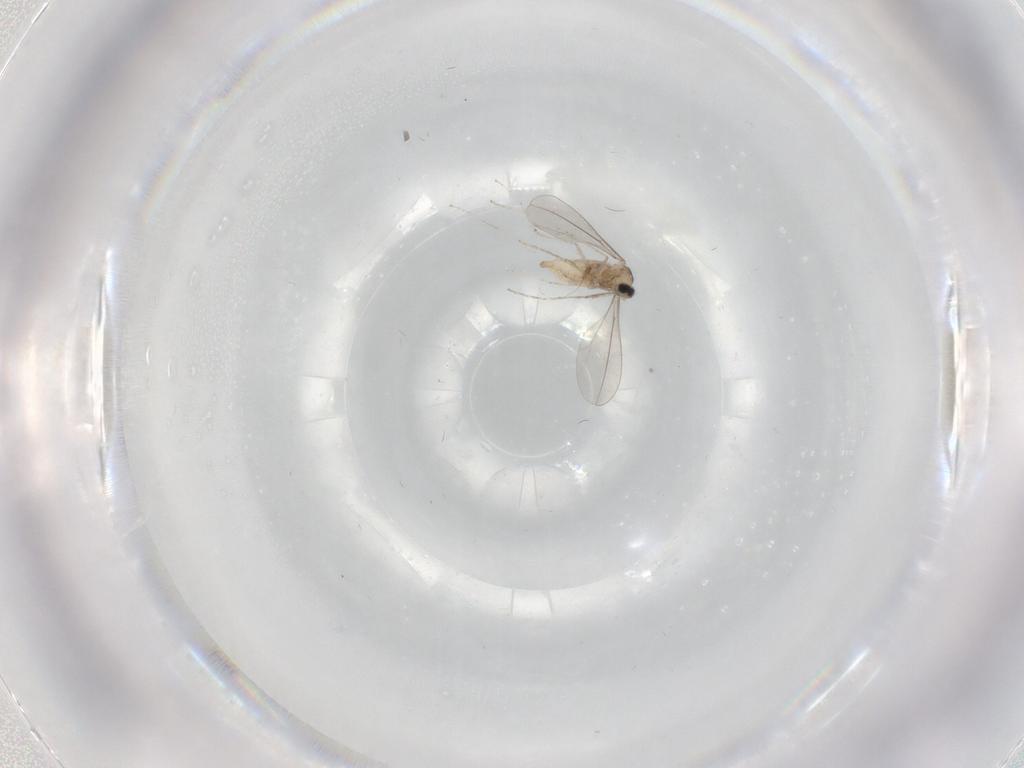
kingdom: Animalia
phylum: Arthropoda
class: Insecta
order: Diptera
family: Cecidomyiidae
